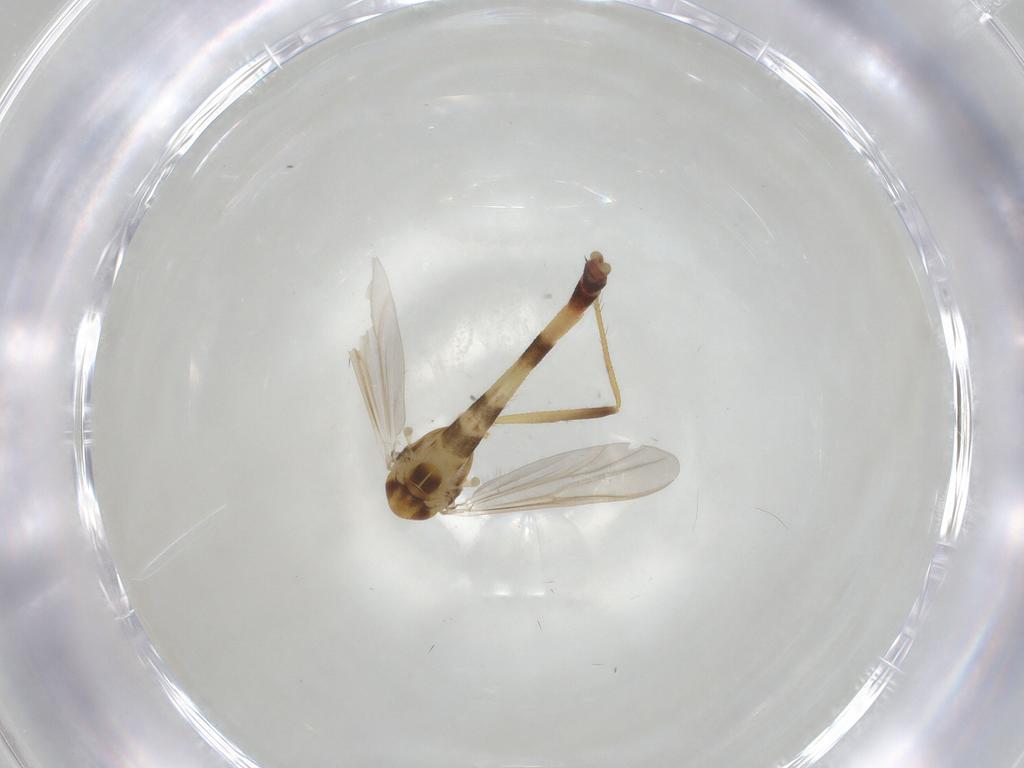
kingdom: Animalia
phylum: Arthropoda
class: Insecta
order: Diptera
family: Chironomidae
